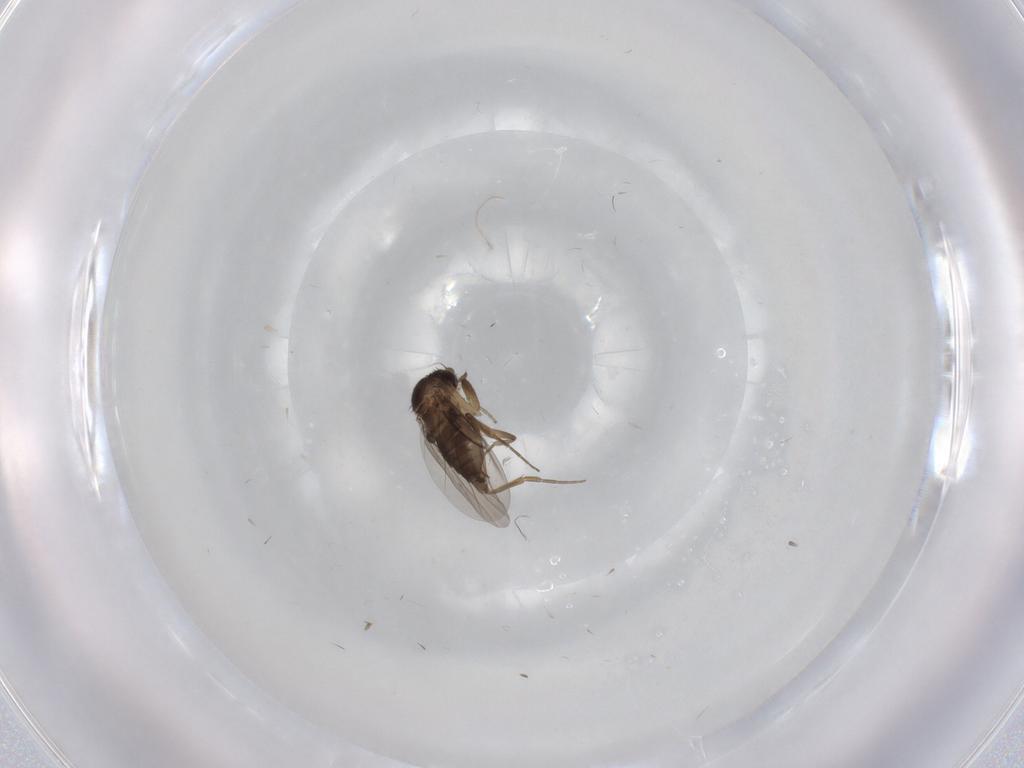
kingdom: Animalia
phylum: Arthropoda
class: Insecta
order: Diptera
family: Phoridae
